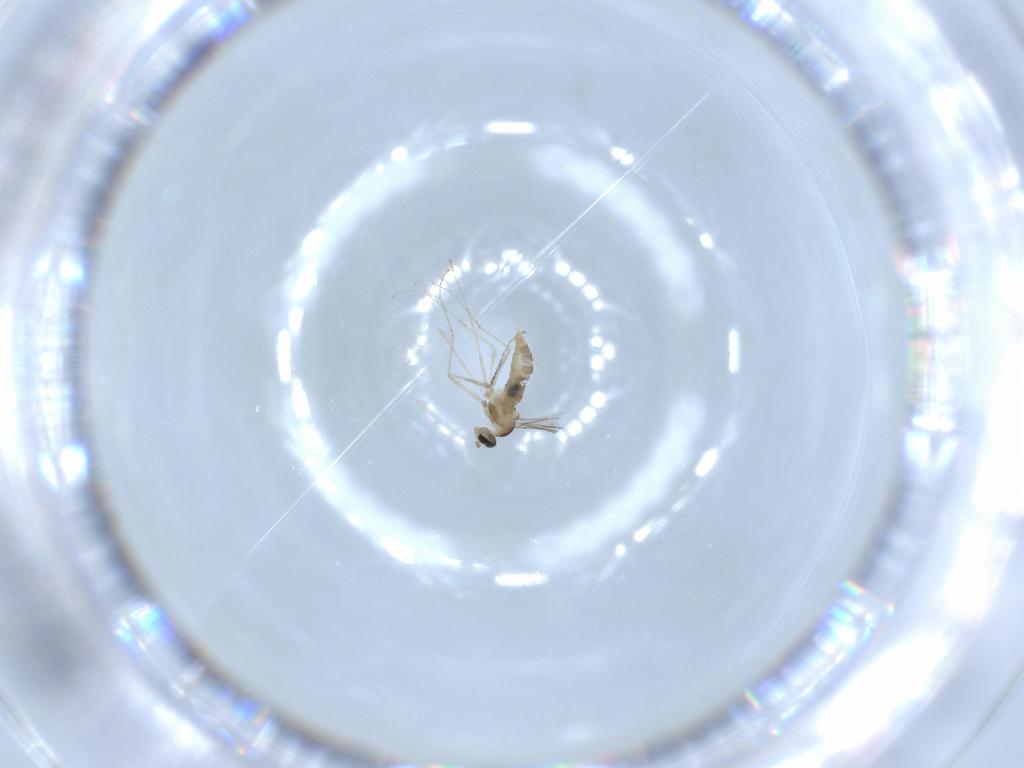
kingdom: Animalia
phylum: Arthropoda
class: Insecta
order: Diptera
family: Cecidomyiidae
